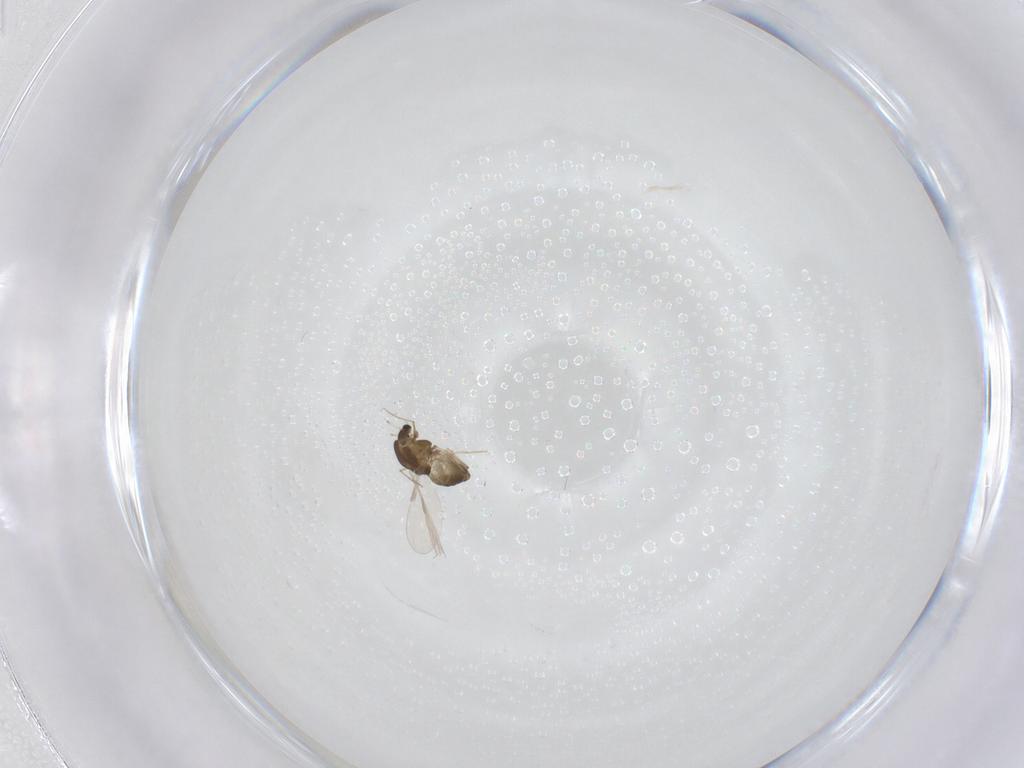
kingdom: Animalia
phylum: Arthropoda
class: Insecta
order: Diptera
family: Chironomidae
